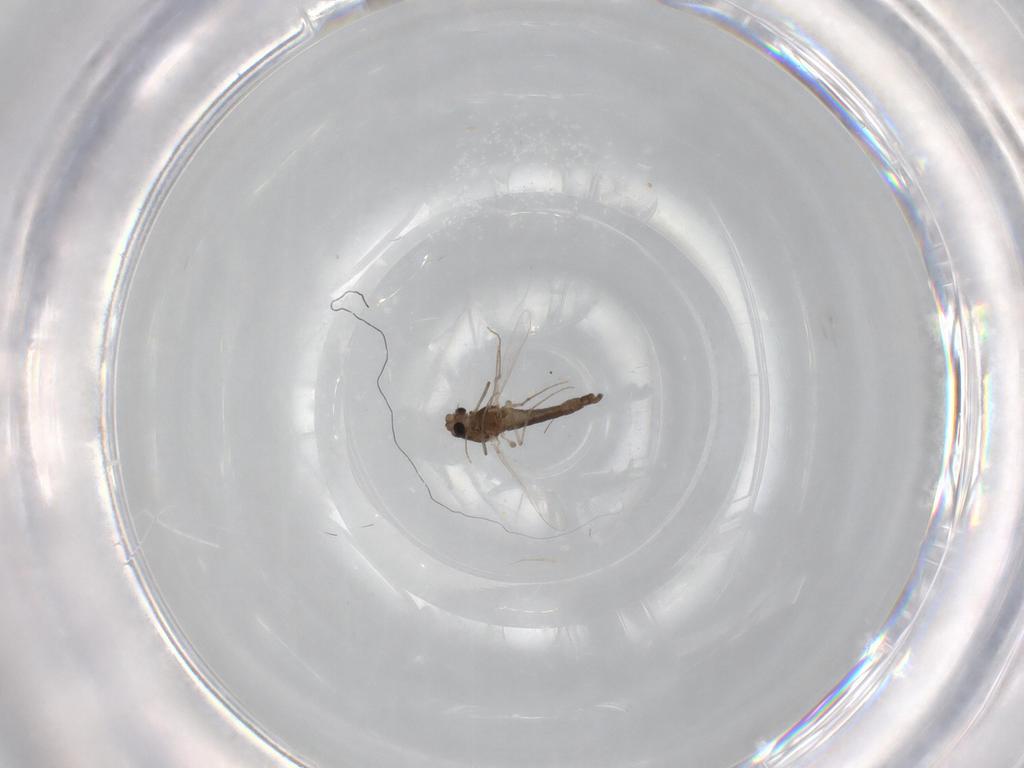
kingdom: Animalia
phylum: Arthropoda
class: Insecta
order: Diptera
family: Chironomidae
